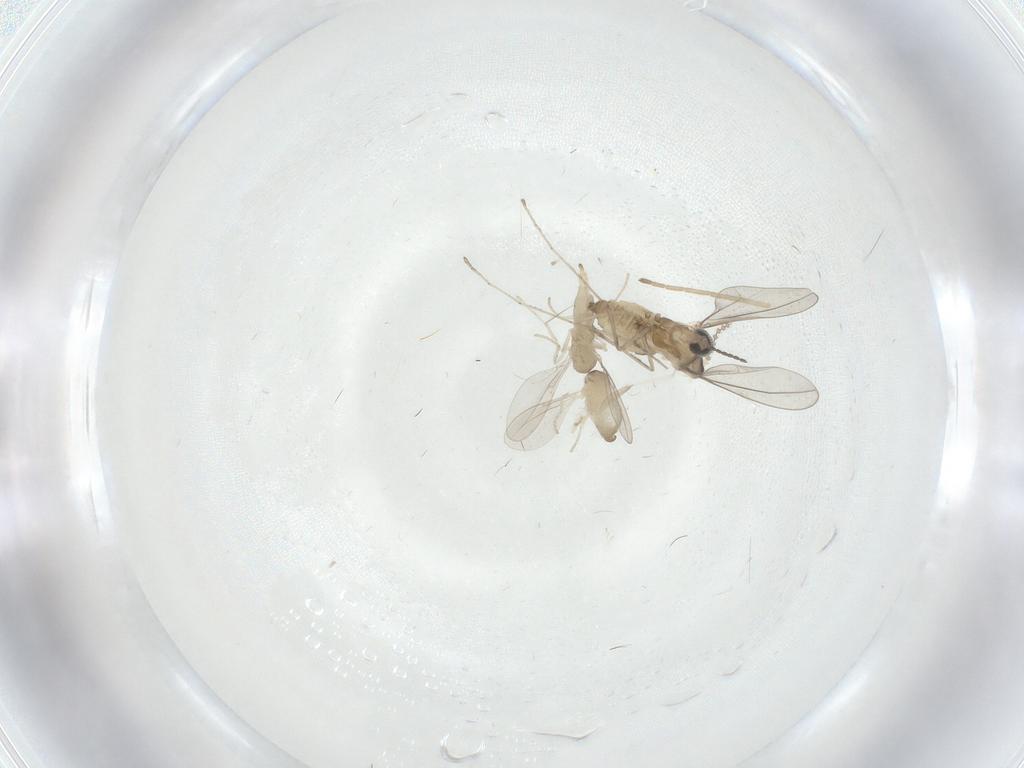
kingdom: Animalia
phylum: Arthropoda
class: Insecta
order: Diptera
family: Cecidomyiidae
